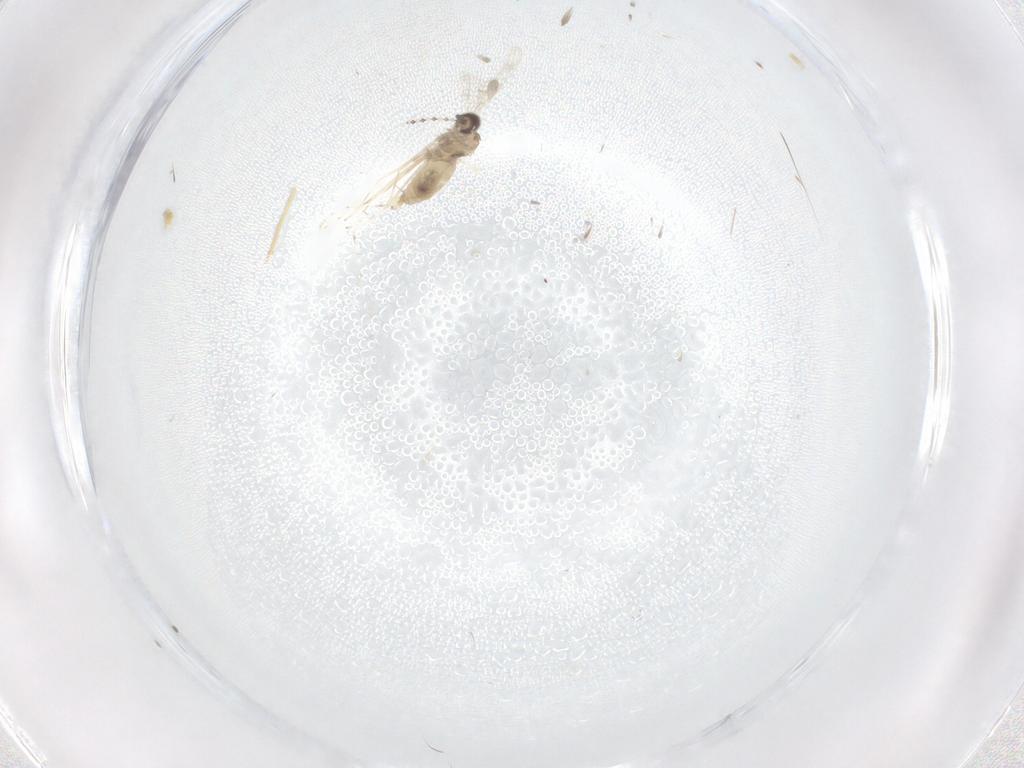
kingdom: Animalia
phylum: Arthropoda
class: Insecta
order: Diptera
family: Cecidomyiidae
